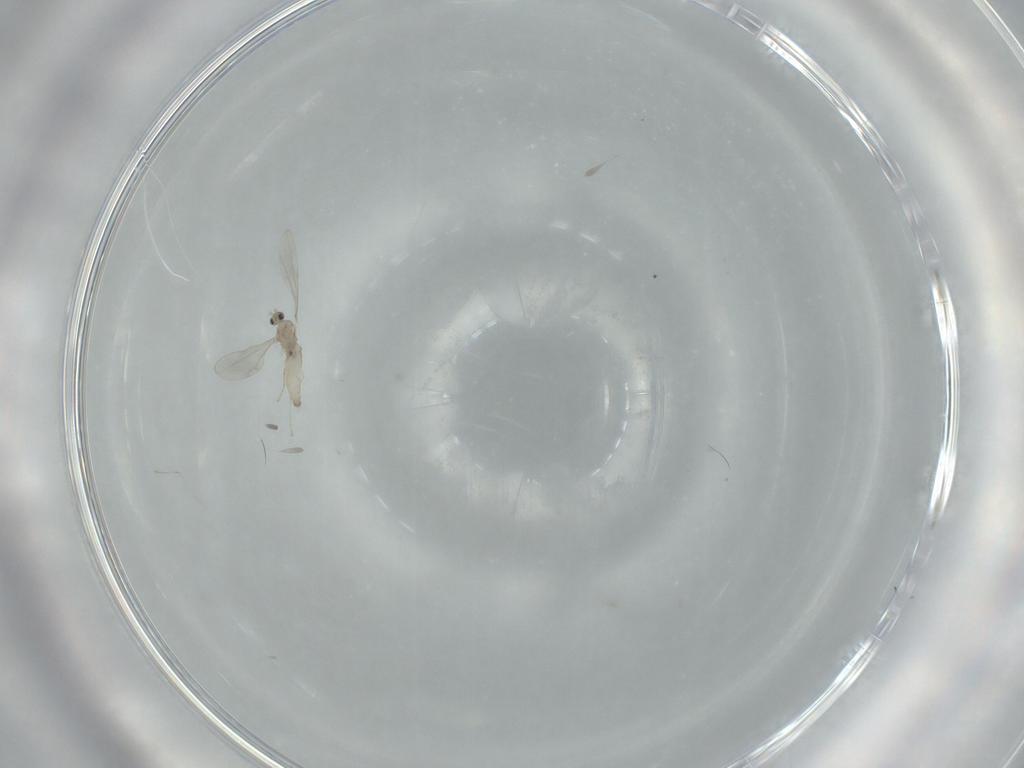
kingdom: Animalia
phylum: Arthropoda
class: Insecta
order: Diptera
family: Cecidomyiidae
